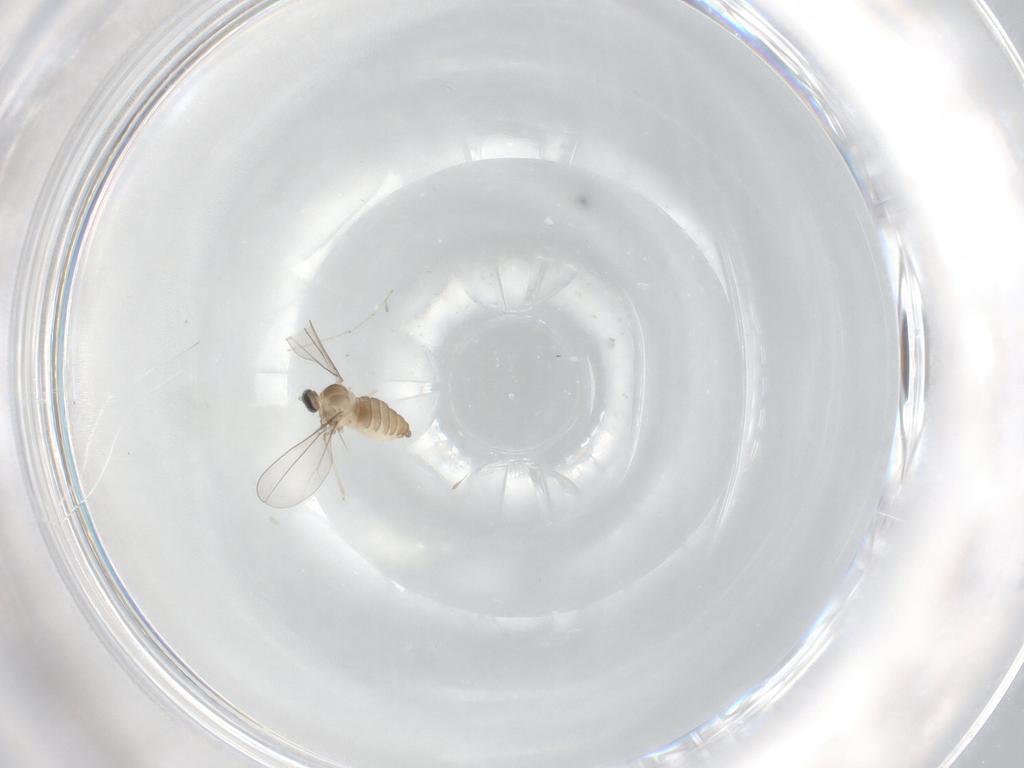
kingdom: Animalia
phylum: Arthropoda
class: Insecta
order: Diptera
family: Cecidomyiidae
